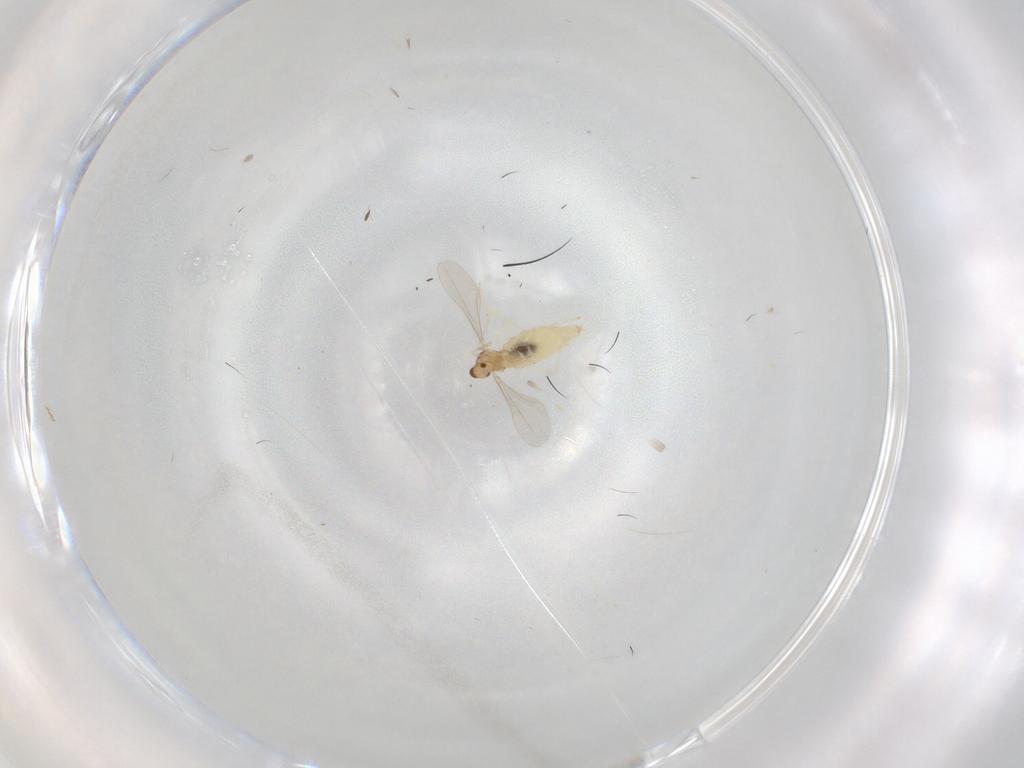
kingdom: Animalia
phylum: Arthropoda
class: Insecta
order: Diptera
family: Cecidomyiidae
